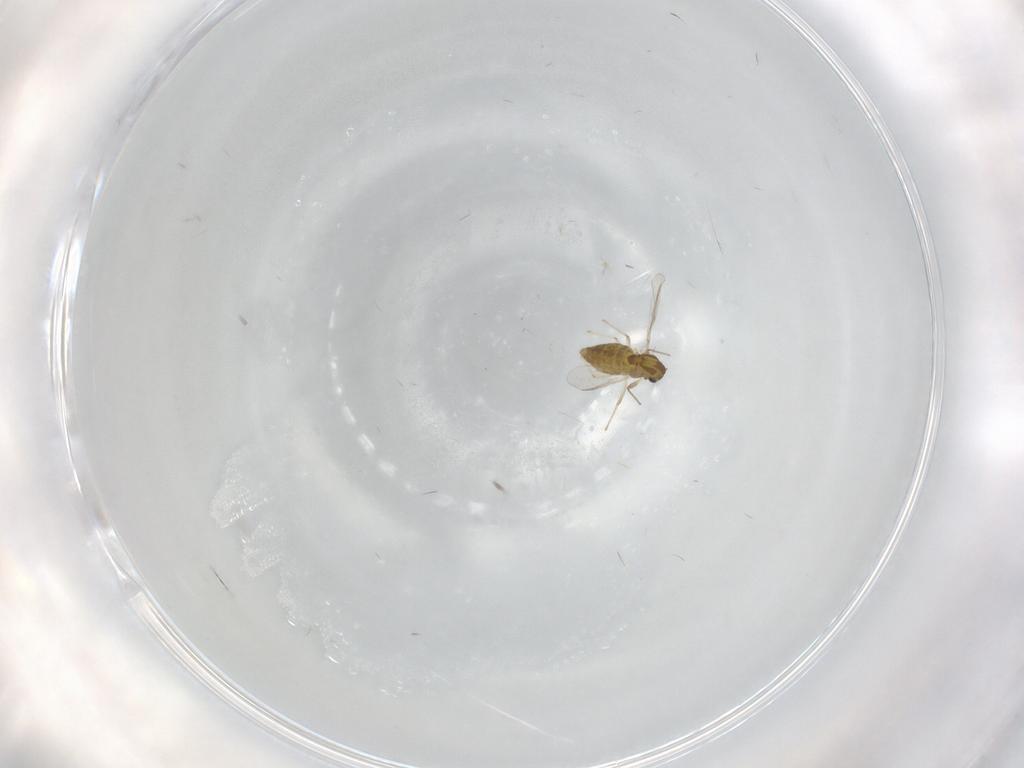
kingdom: Animalia
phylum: Arthropoda
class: Insecta
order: Diptera
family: Chironomidae
